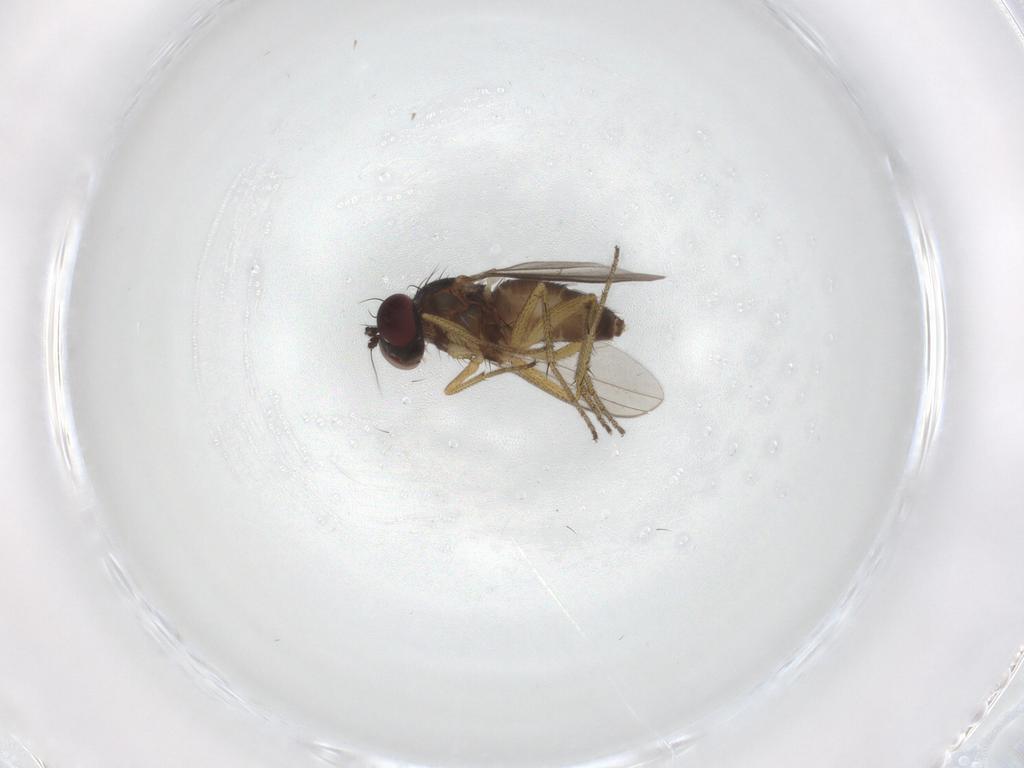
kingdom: Animalia
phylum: Arthropoda
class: Insecta
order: Diptera
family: Dolichopodidae
